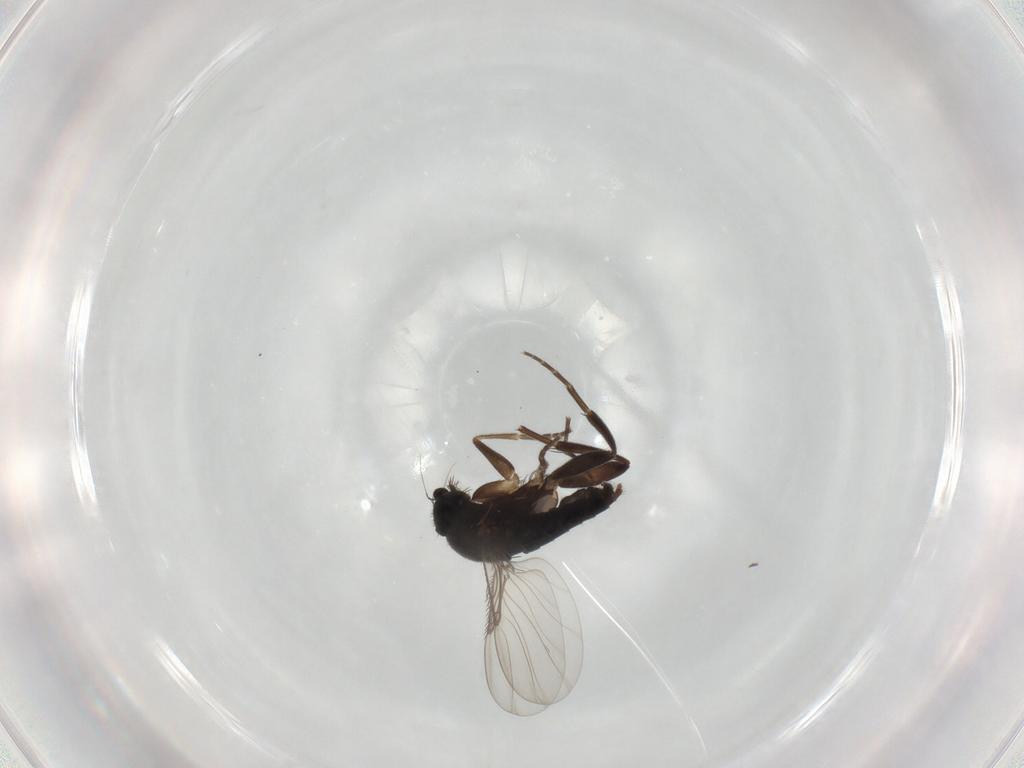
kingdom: Animalia
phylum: Arthropoda
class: Insecta
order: Diptera
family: Phoridae
